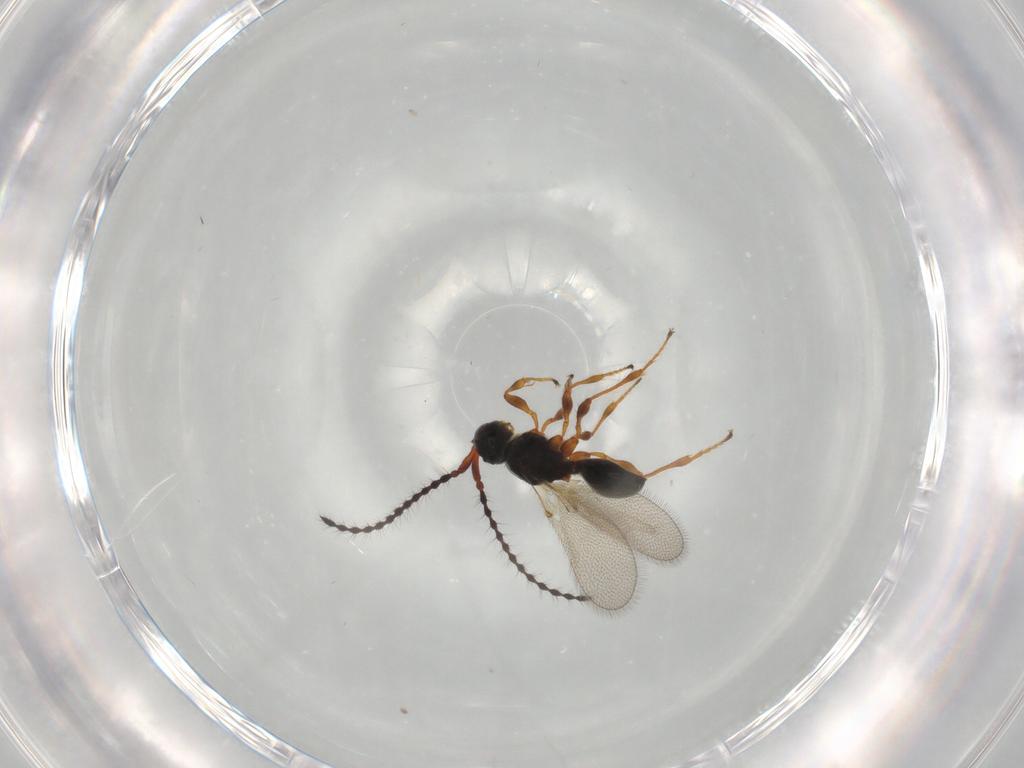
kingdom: Animalia
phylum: Arthropoda
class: Insecta
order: Hymenoptera
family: Diapriidae
